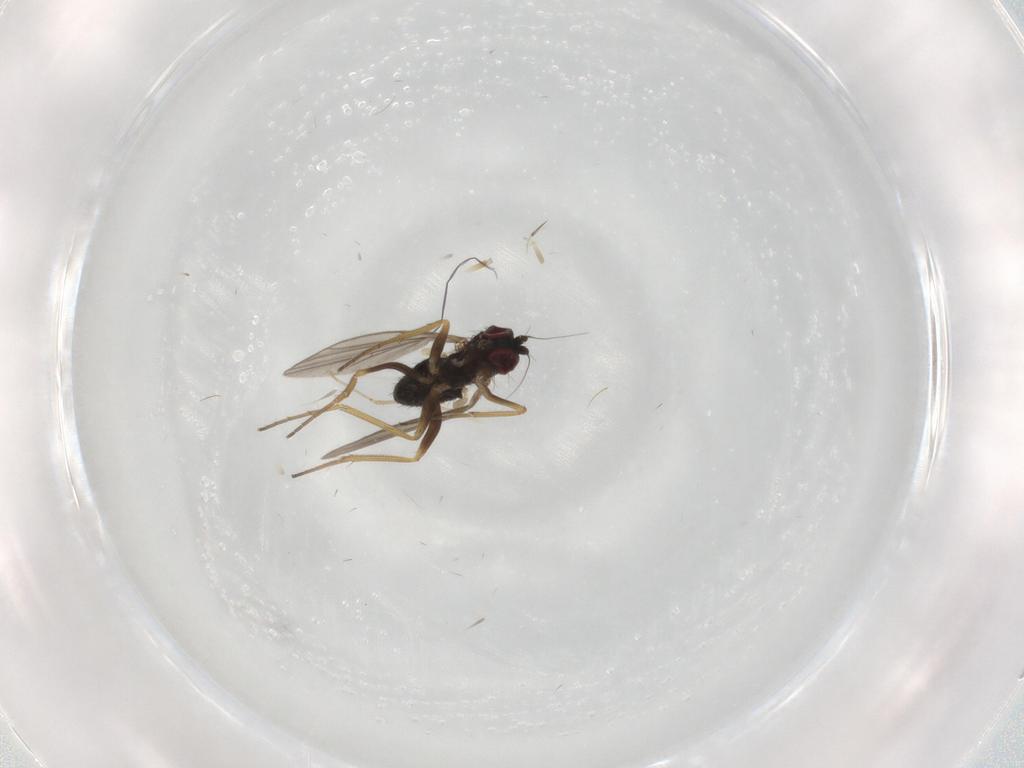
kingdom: Animalia
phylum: Arthropoda
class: Insecta
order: Diptera
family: Cecidomyiidae
